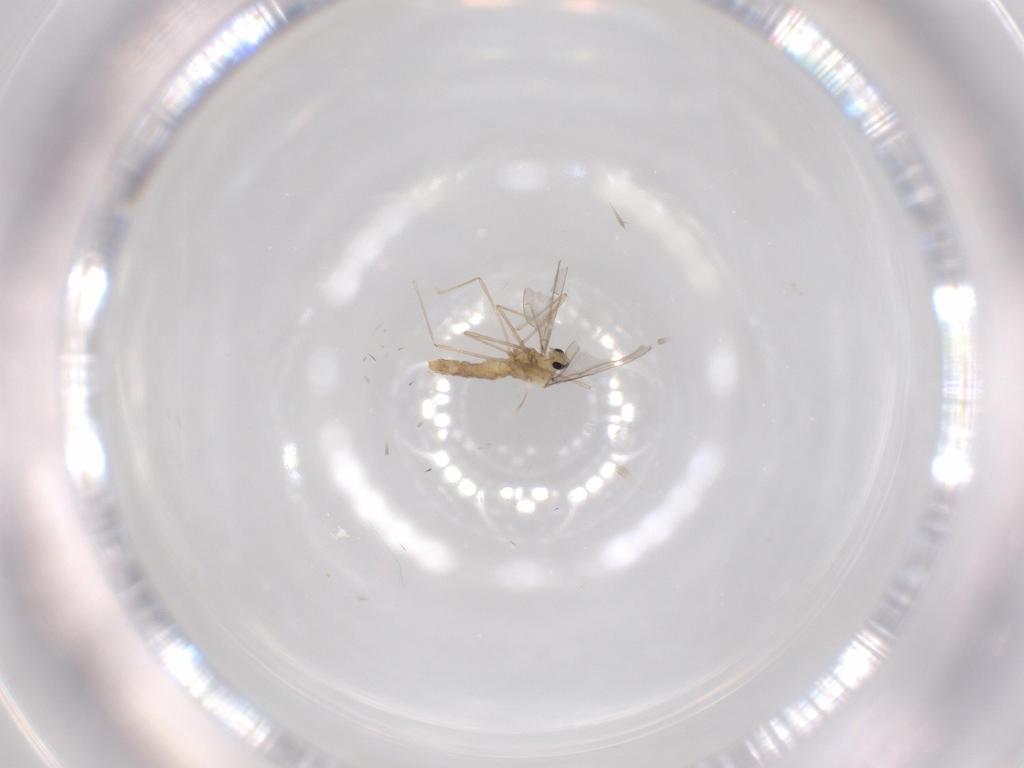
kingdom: Animalia
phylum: Arthropoda
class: Insecta
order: Diptera
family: Cecidomyiidae
